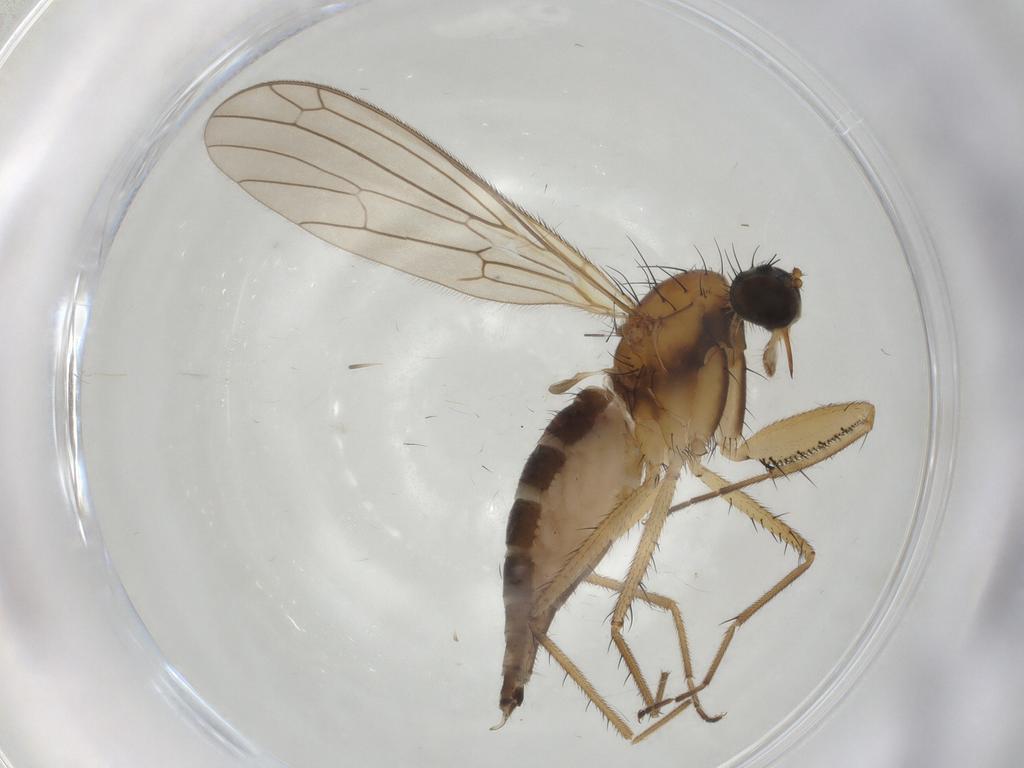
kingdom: Animalia
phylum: Arthropoda
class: Insecta
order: Diptera
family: Empididae
